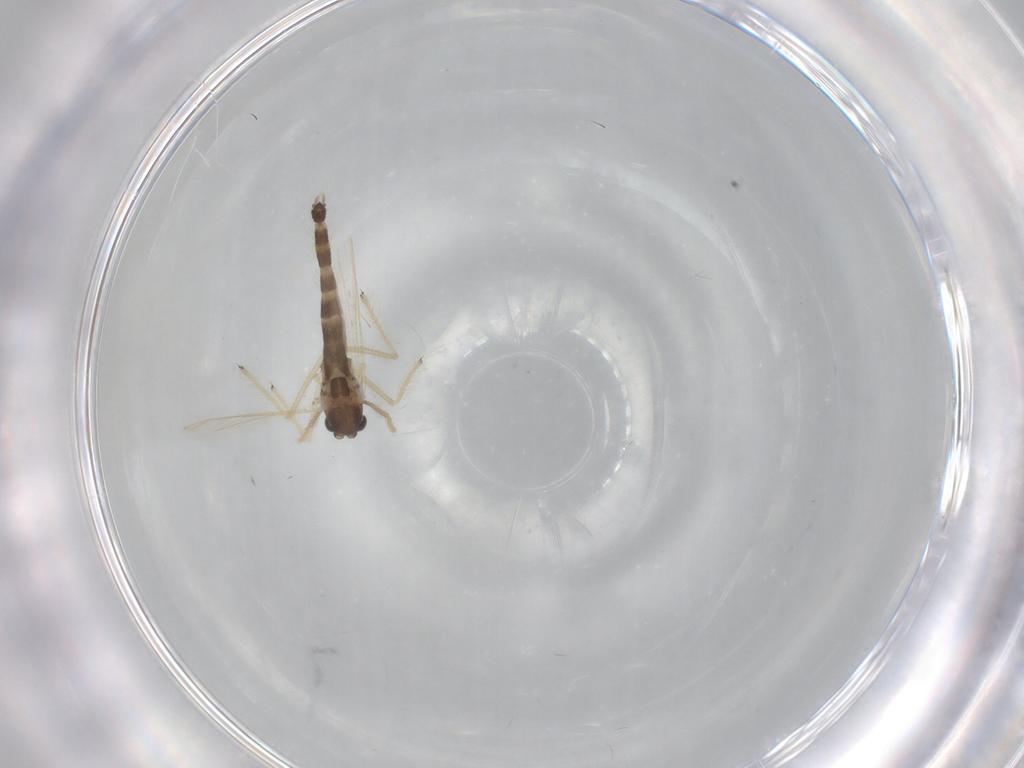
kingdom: Animalia
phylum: Arthropoda
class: Insecta
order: Diptera
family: Chironomidae
